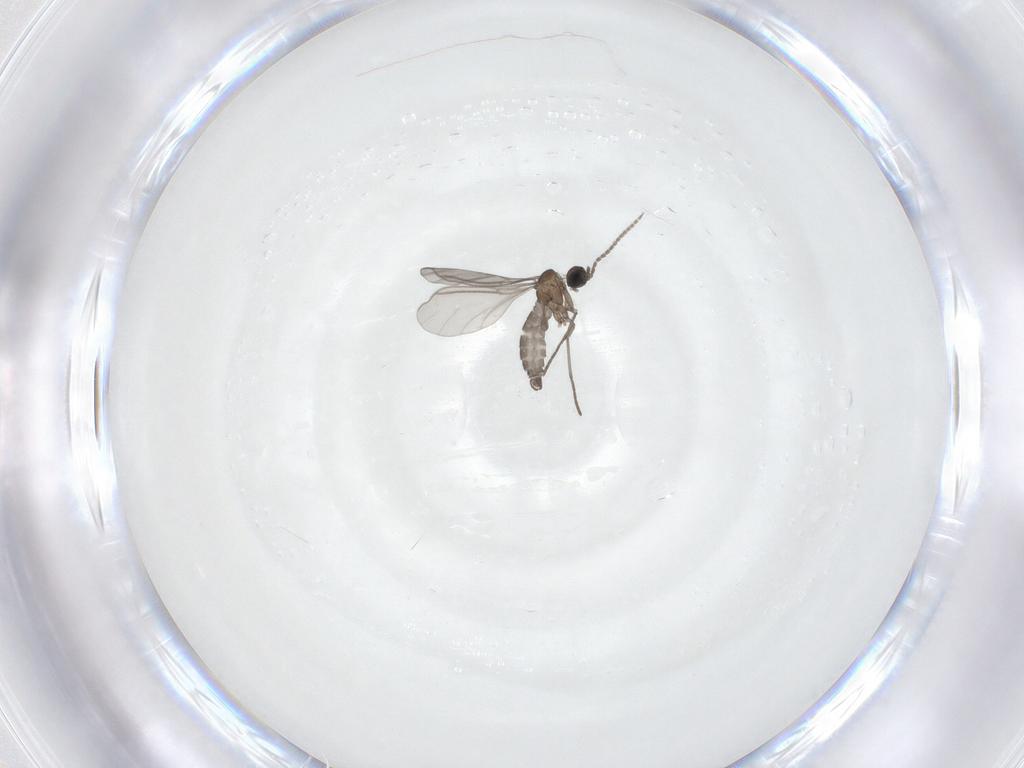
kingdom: Animalia
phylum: Arthropoda
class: Insecta
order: Diptera
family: Sciaridae
